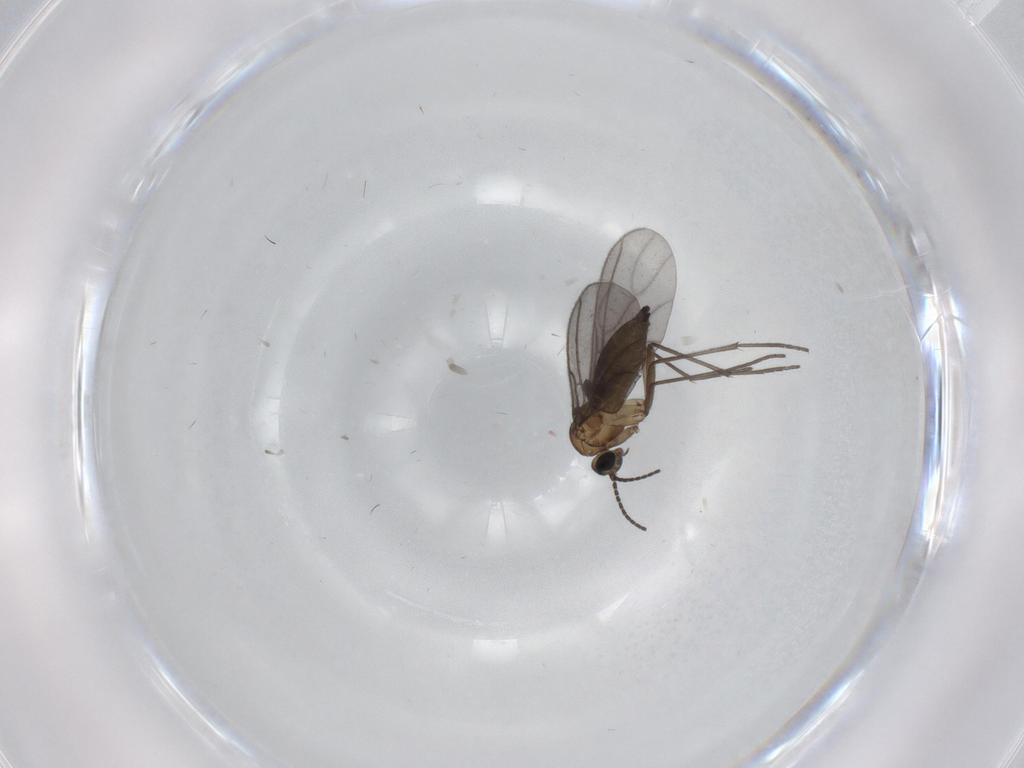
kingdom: Animalia
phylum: Arthropoda
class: Insecta
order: Diptera
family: Sciaridae
